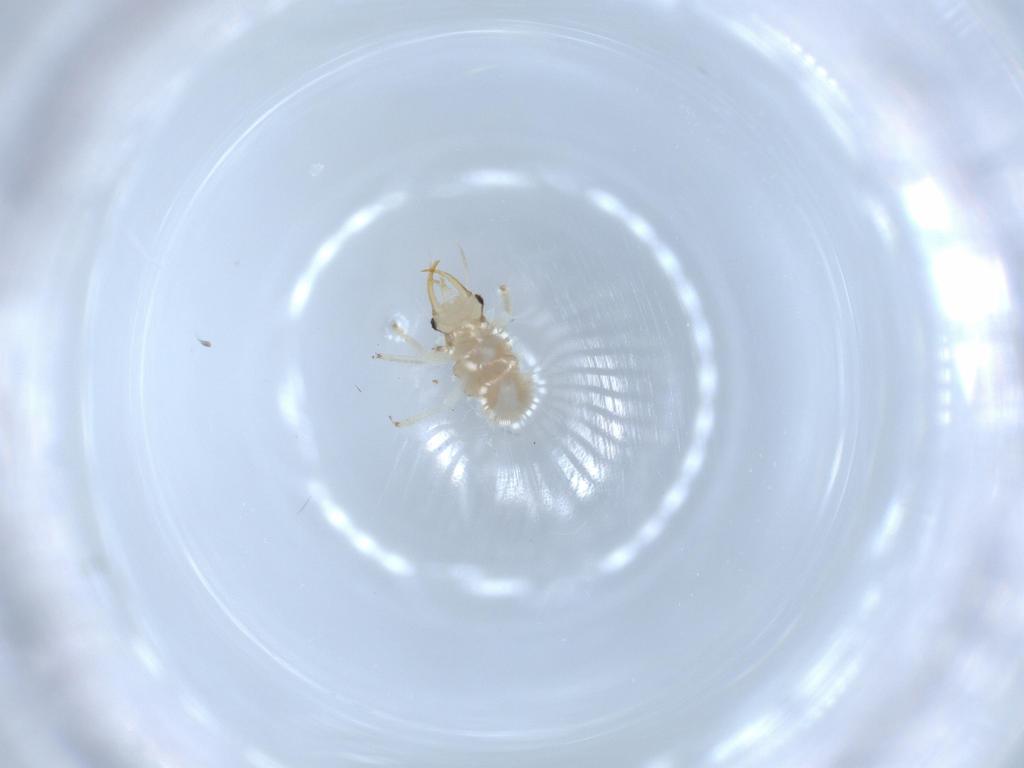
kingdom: Animalia
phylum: Arthropoda
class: Insecta
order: Neuroptera
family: Chrysopidae
